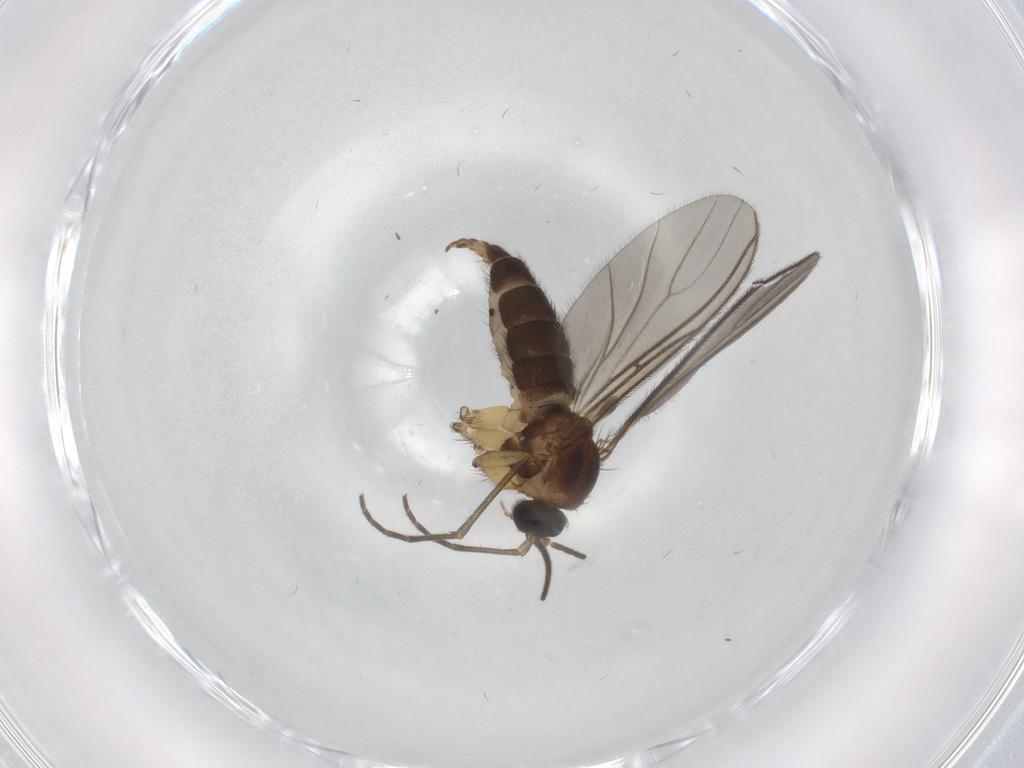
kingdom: Animalia
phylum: Arthropoda
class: Insecta
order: Diptera
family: Sciaridae
